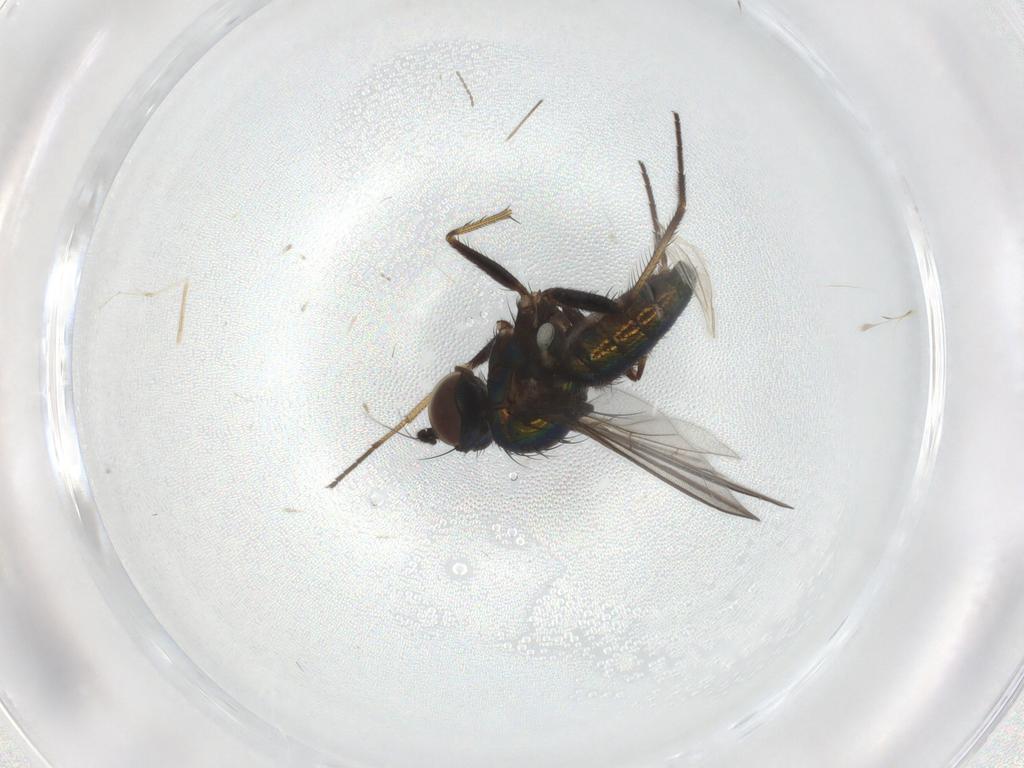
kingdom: Animalia
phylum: Arthropoda
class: Insecta
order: Diptera
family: Dolichopodidae
